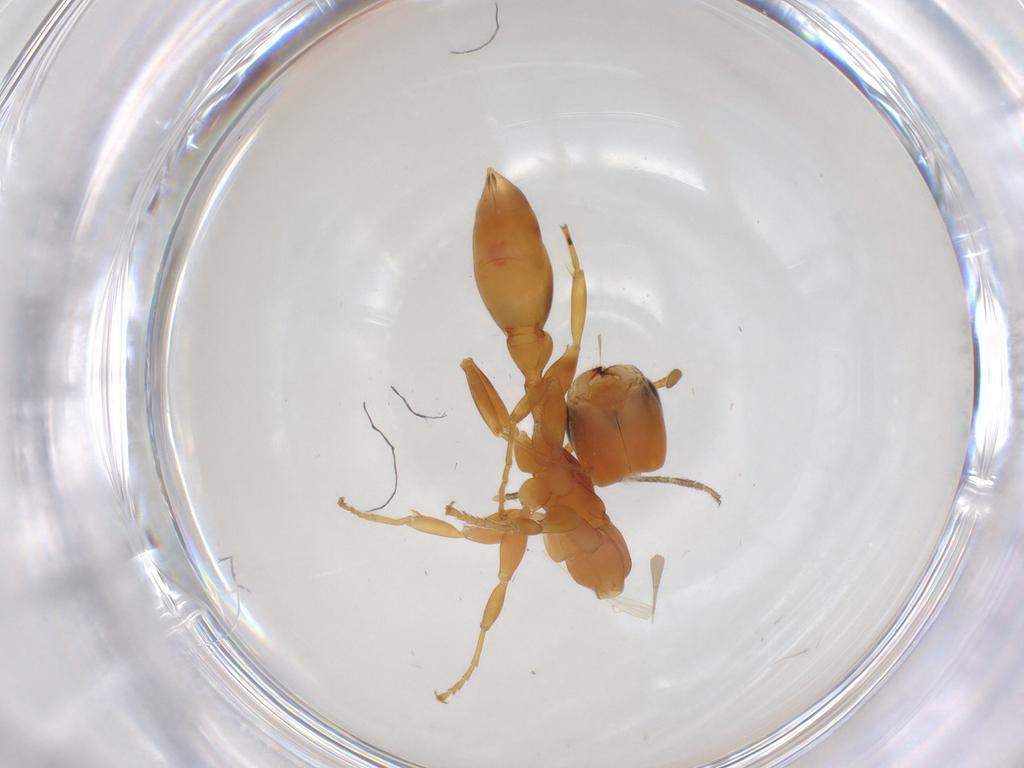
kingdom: Animalia
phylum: Arthropoda
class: Insecta
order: Hymenoptera
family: Formicidae
